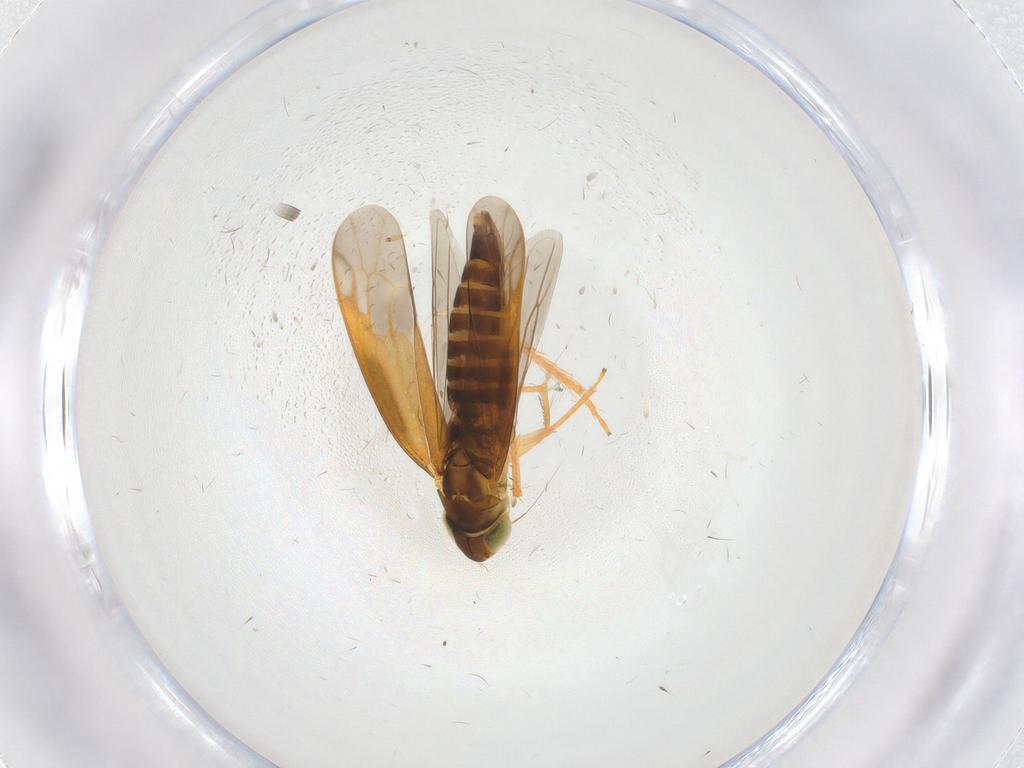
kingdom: Animalia
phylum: Arthropoda
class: Insecta
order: Hemiptera
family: Cicadellidae
